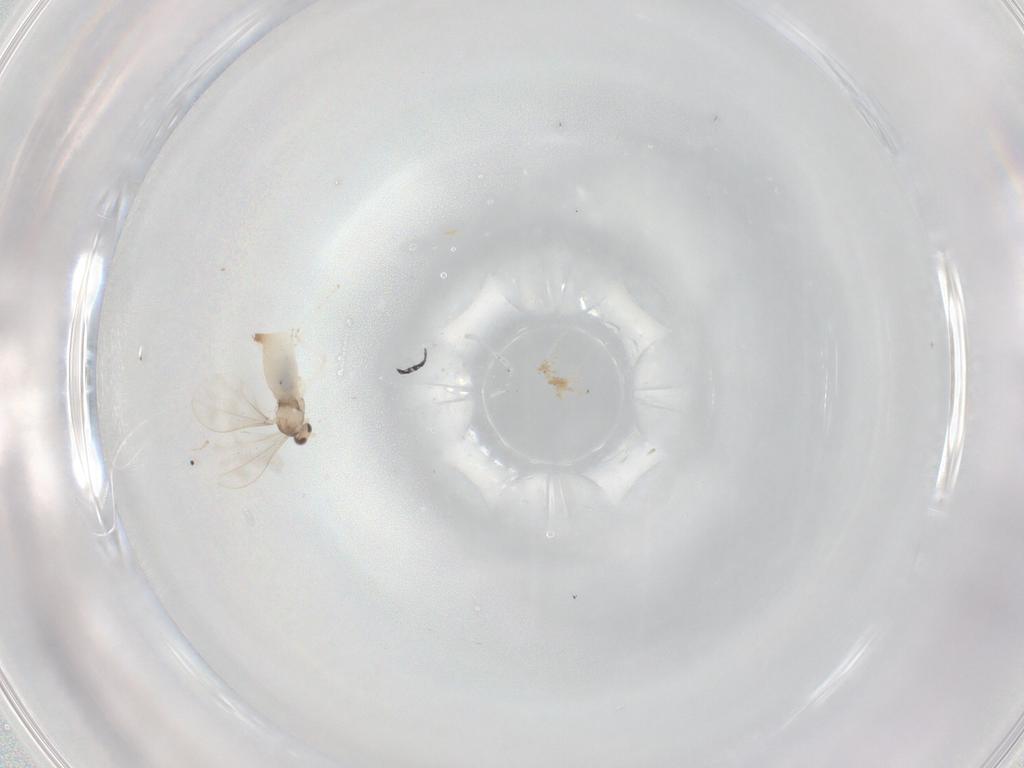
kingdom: Animalia
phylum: Arthropoda
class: Insecta
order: Diptera
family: Cecidomyiidae
